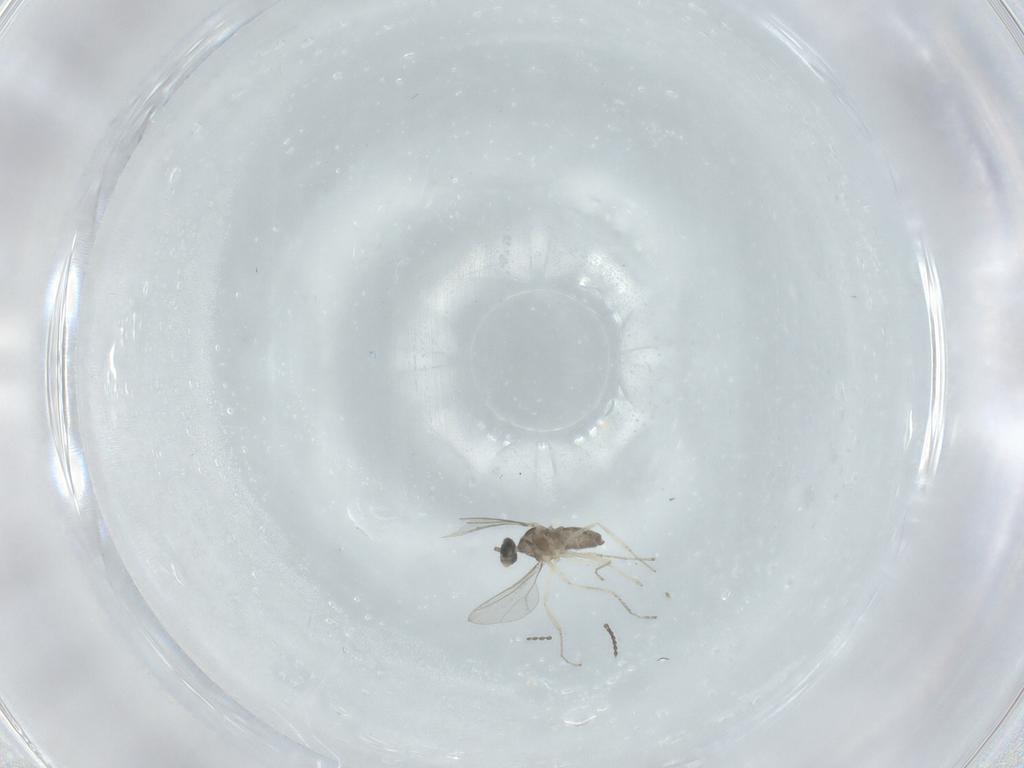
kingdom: Animalia
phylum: Arthropoda
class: Insecta
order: Diptera
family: Cecidomyiidae
